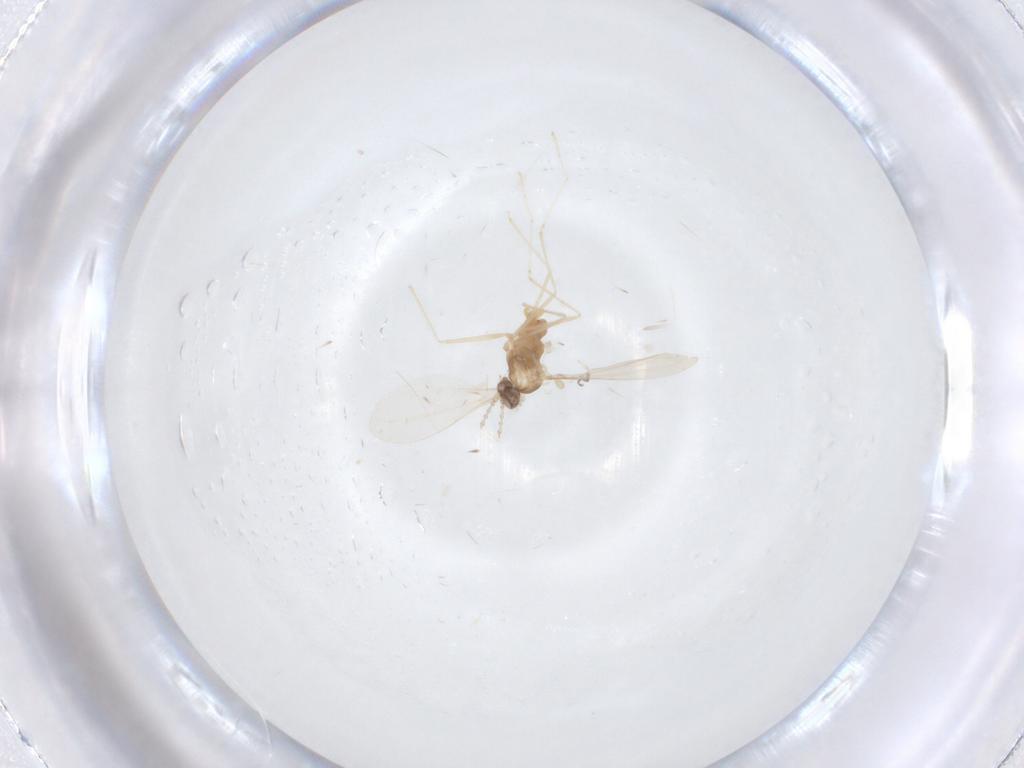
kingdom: Animalia
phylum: Arthropoda
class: Insecta
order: Diptera
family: Cecidomyiidae
